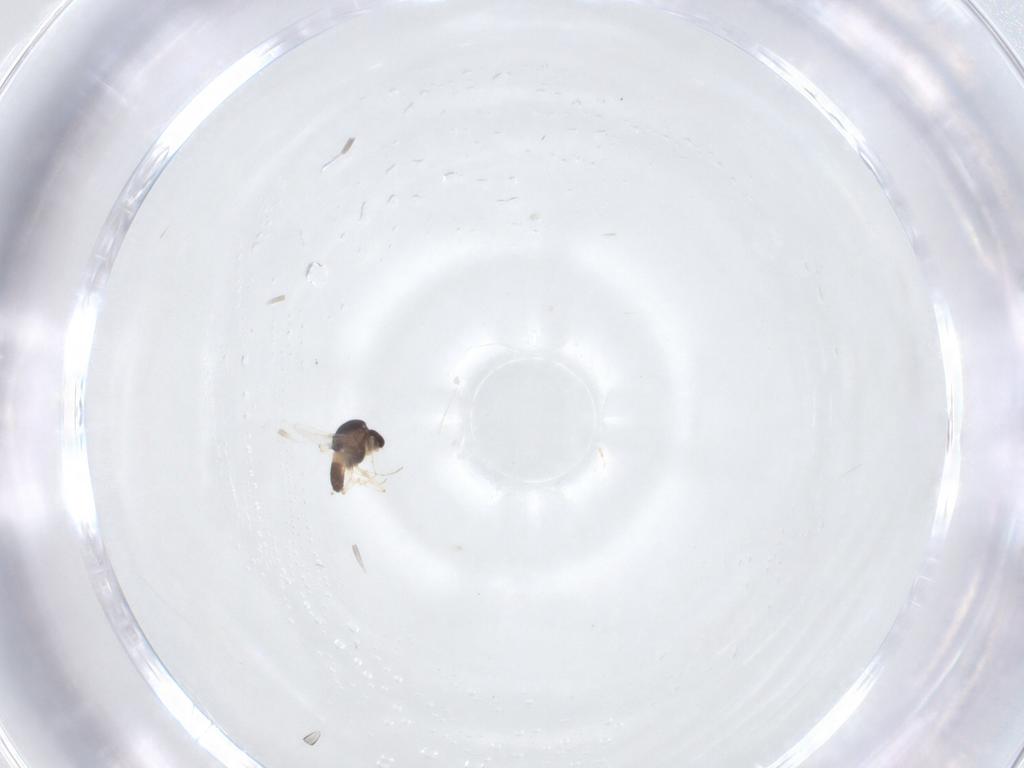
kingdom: Animalia
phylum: Arthropoda
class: Insecta
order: Diptera
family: Chironomidae
